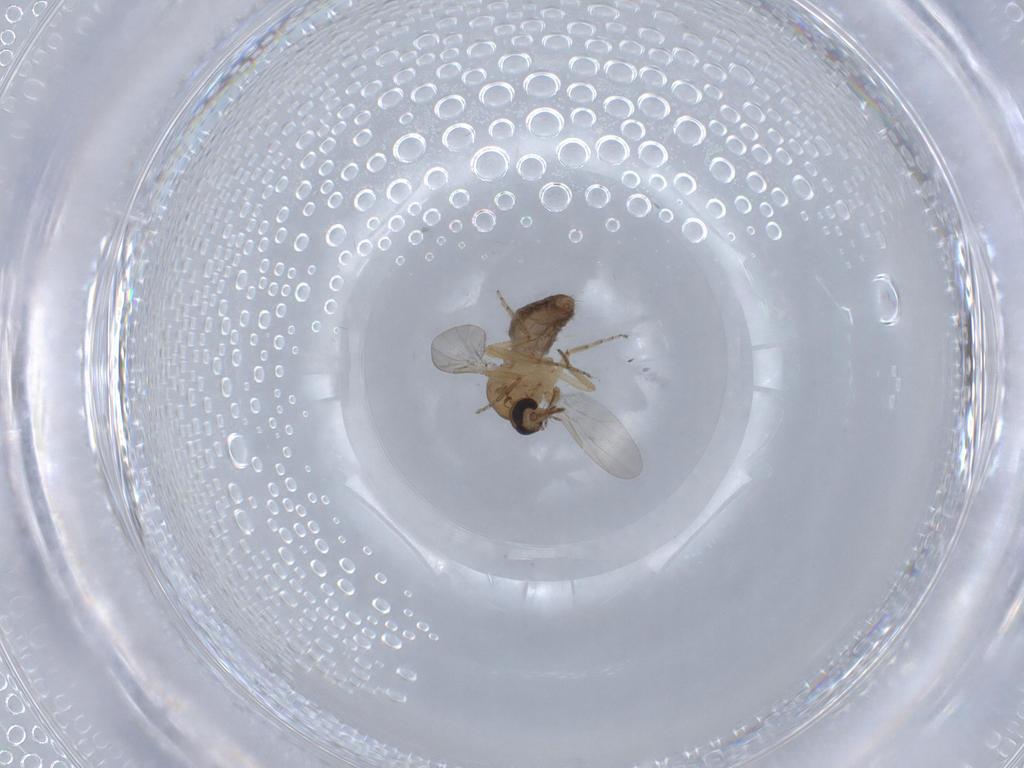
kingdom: Animalia
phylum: Arthropoda
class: Insecta
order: Diptera
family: Ceratopogonidae
